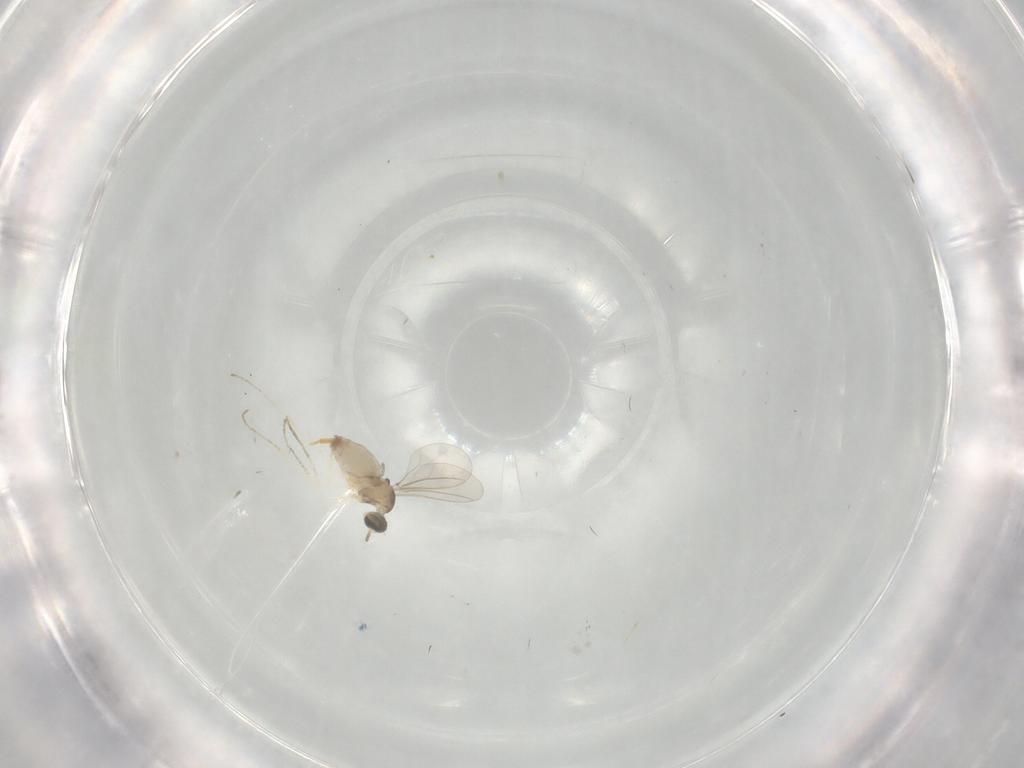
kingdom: Animalia
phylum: Arthropoda
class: Insecta
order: Diptera
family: Cecidomyiidae
